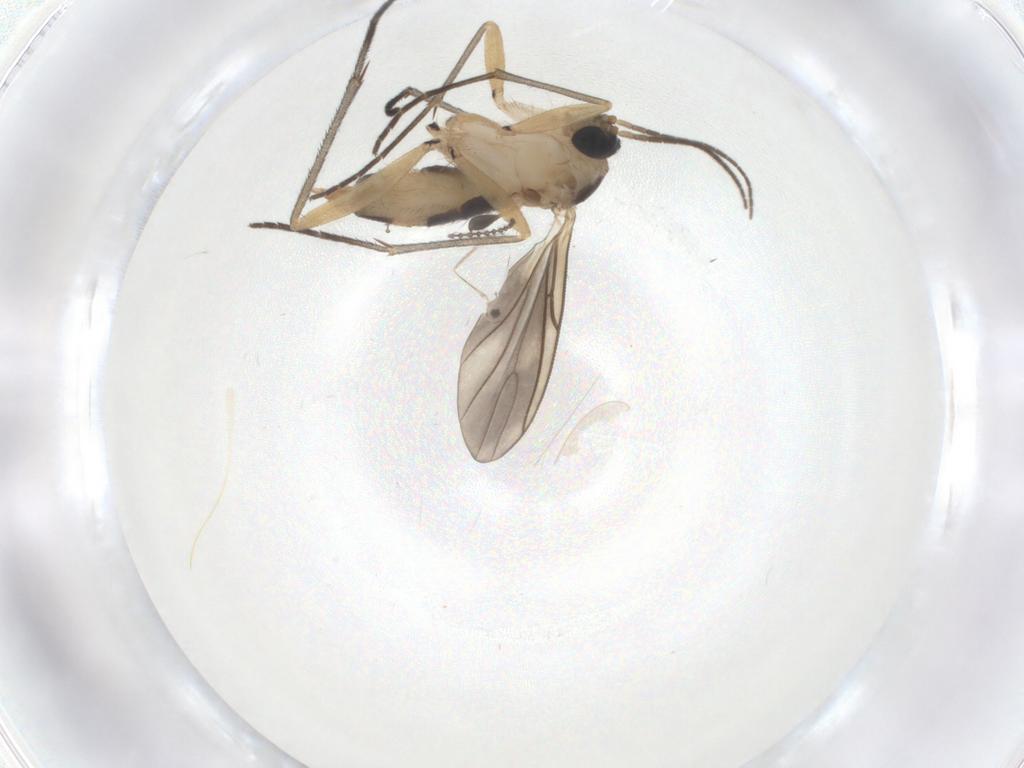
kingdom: Animalia
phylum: Arthropoda
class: Insecta
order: Diptera
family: Sciaridae
